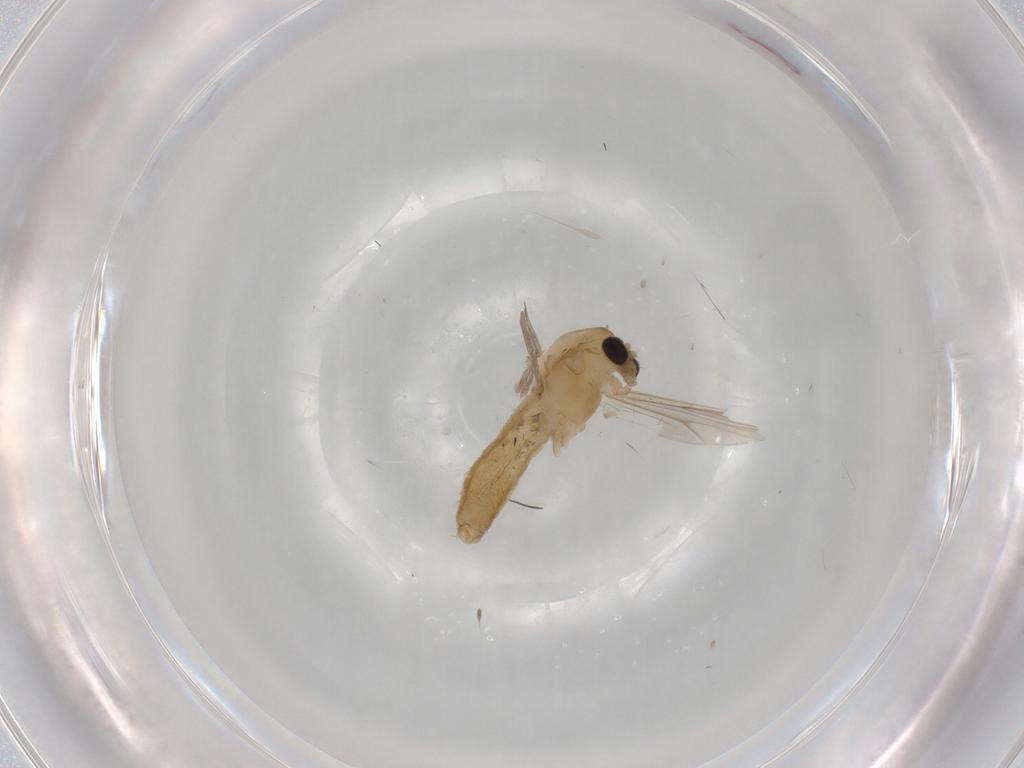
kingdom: Animalia
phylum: Arthropoda
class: Insecta
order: Diptera
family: Chironomidae
